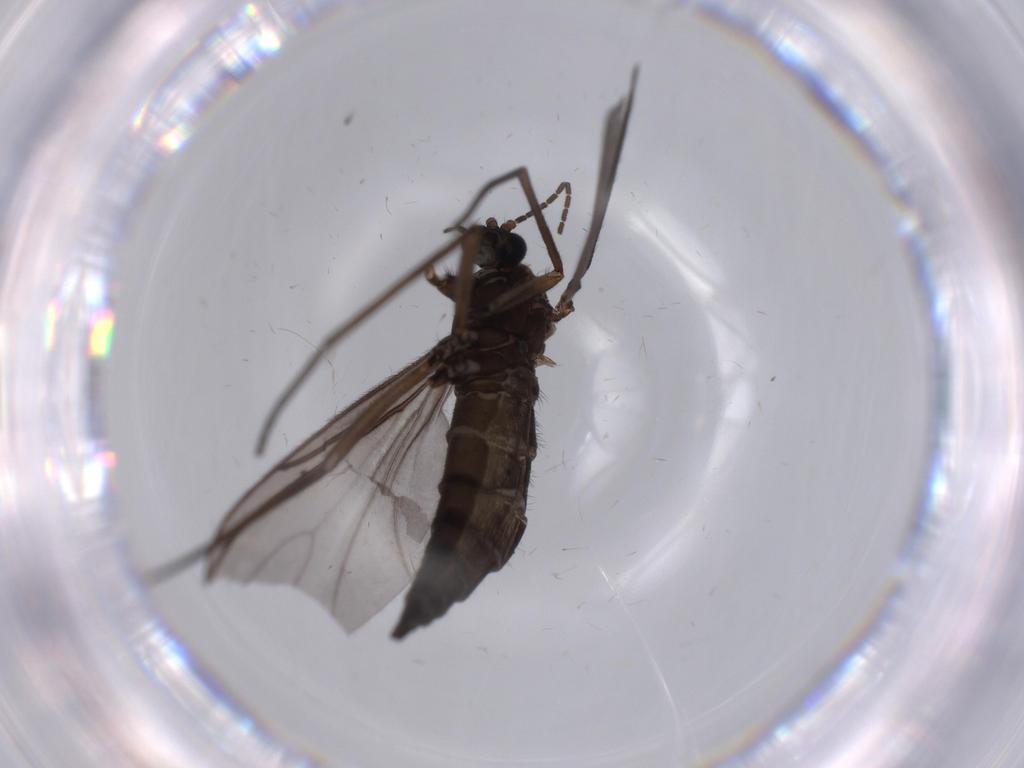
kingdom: Animalia
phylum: Arthropoda
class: Insecta
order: Diptera
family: Sciaridae
